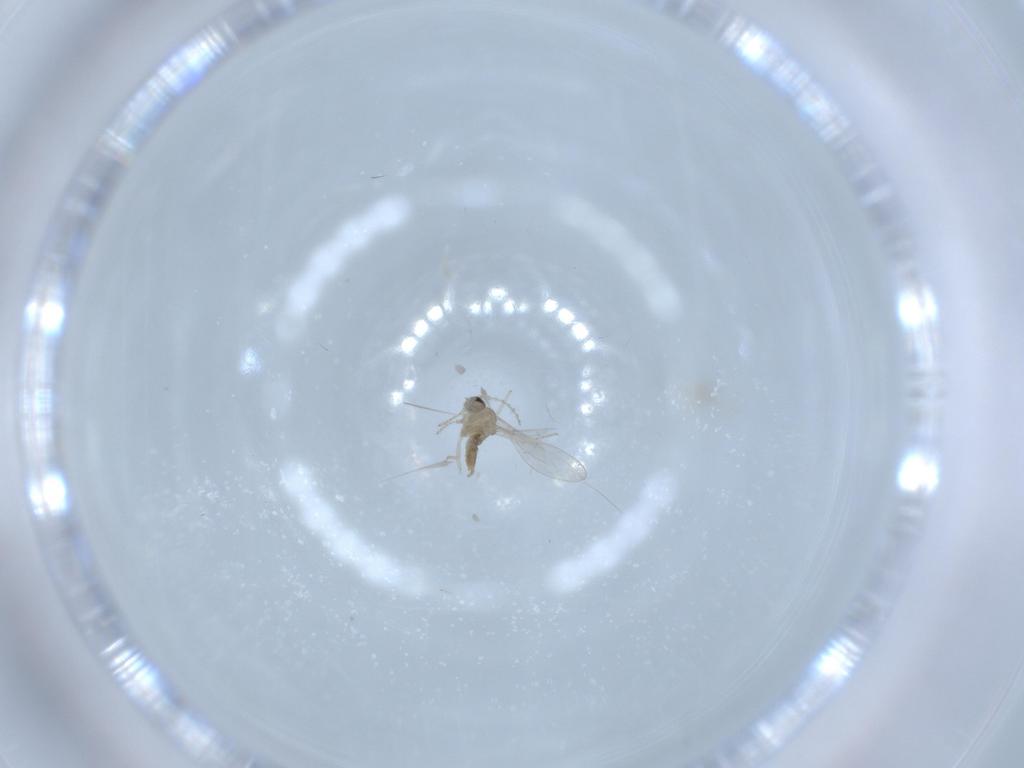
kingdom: Animalia
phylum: Arthropoda
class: Insecta
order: Diptera
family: Cecidomyiidae
